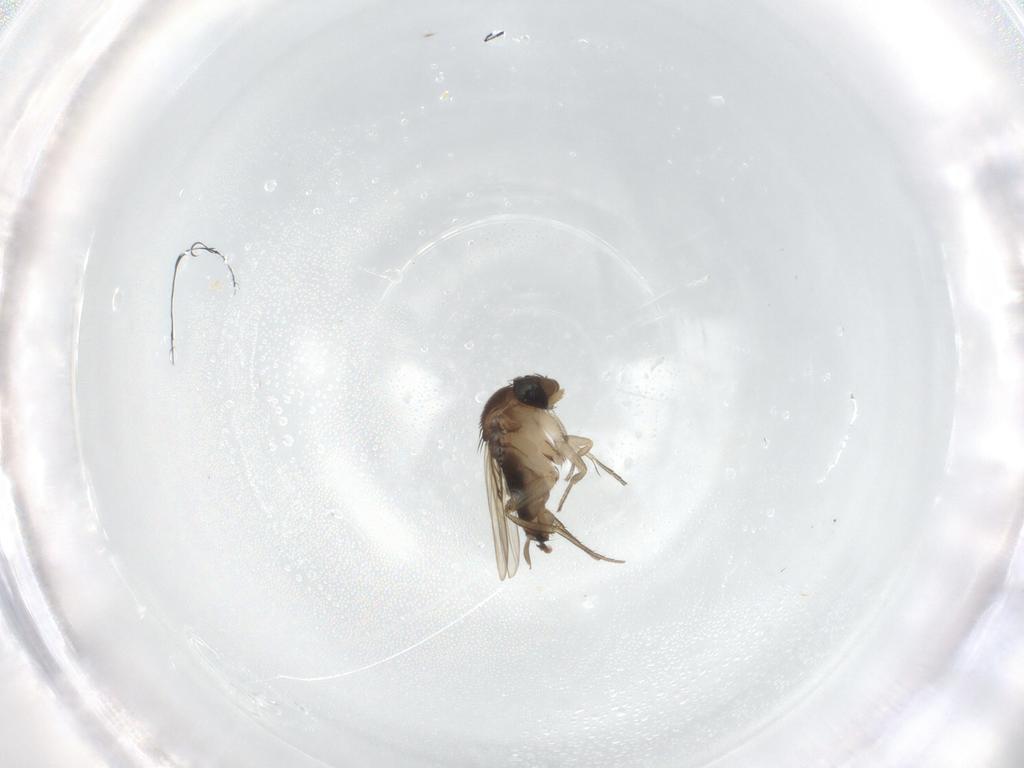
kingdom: Animalia
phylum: Arthropoda
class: Insecta
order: Diptera
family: Phoridae
